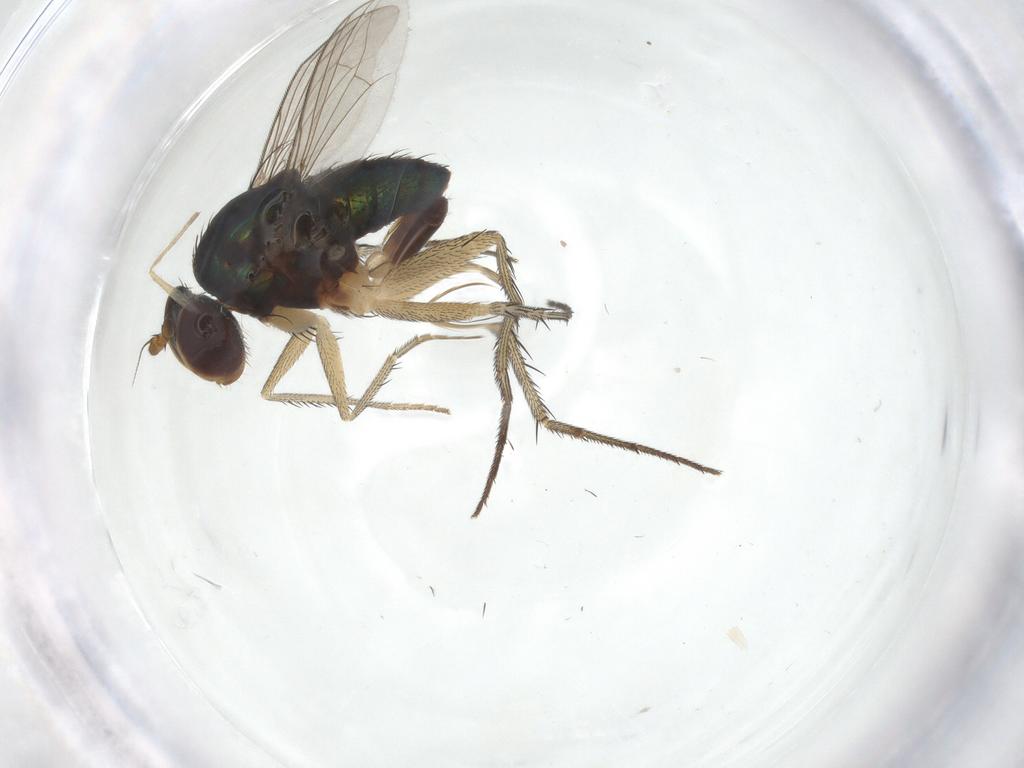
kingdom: Animalia
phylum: Arthropoda
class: Insecta
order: Diptera
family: Dolichopodidae
